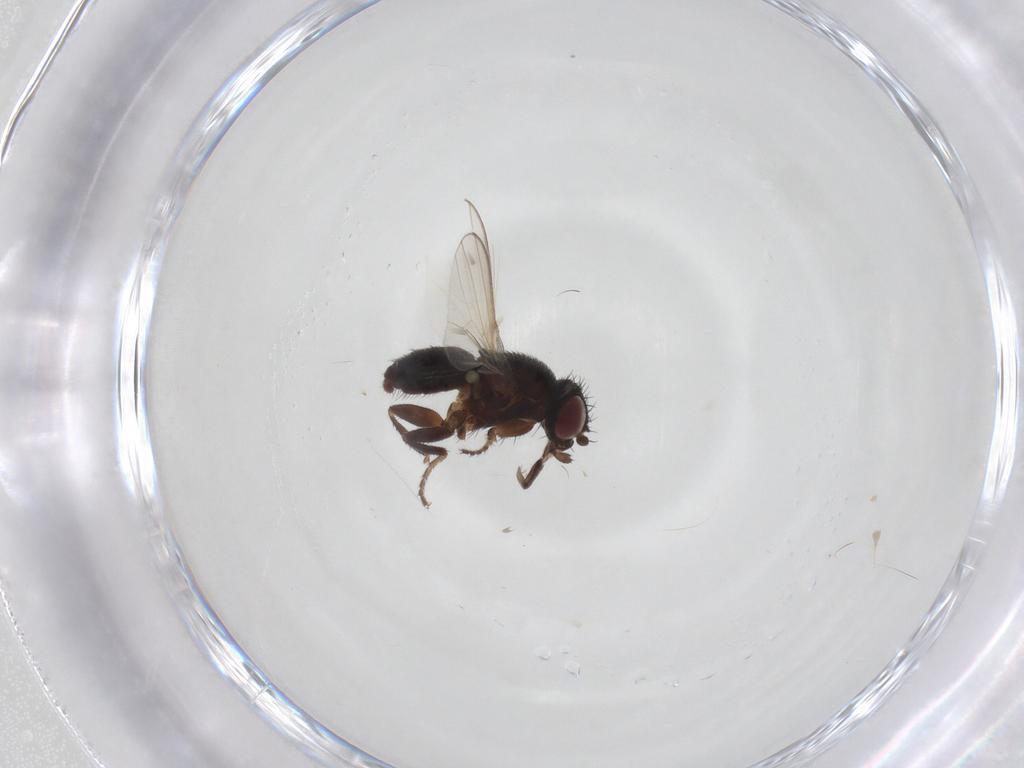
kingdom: Animalia
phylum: Arthropoda
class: Insecta
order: Diptera
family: Milichiidae
